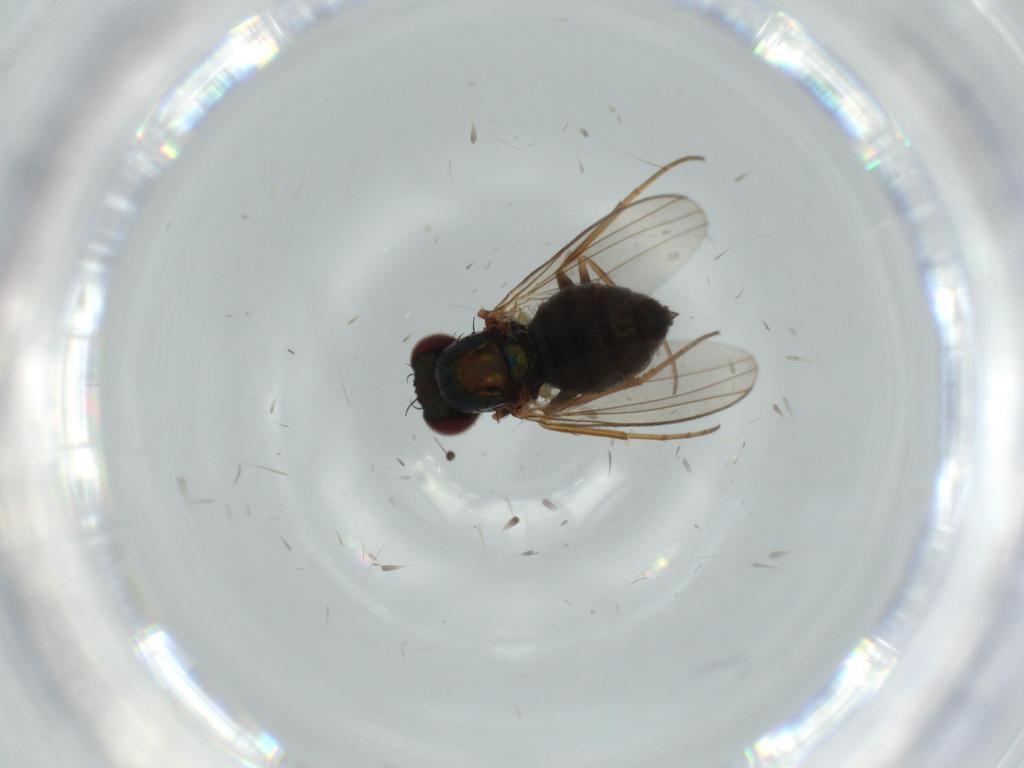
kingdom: Animalia
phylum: Arthropoda
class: Insecta
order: Diptera
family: Dolichopodidae
